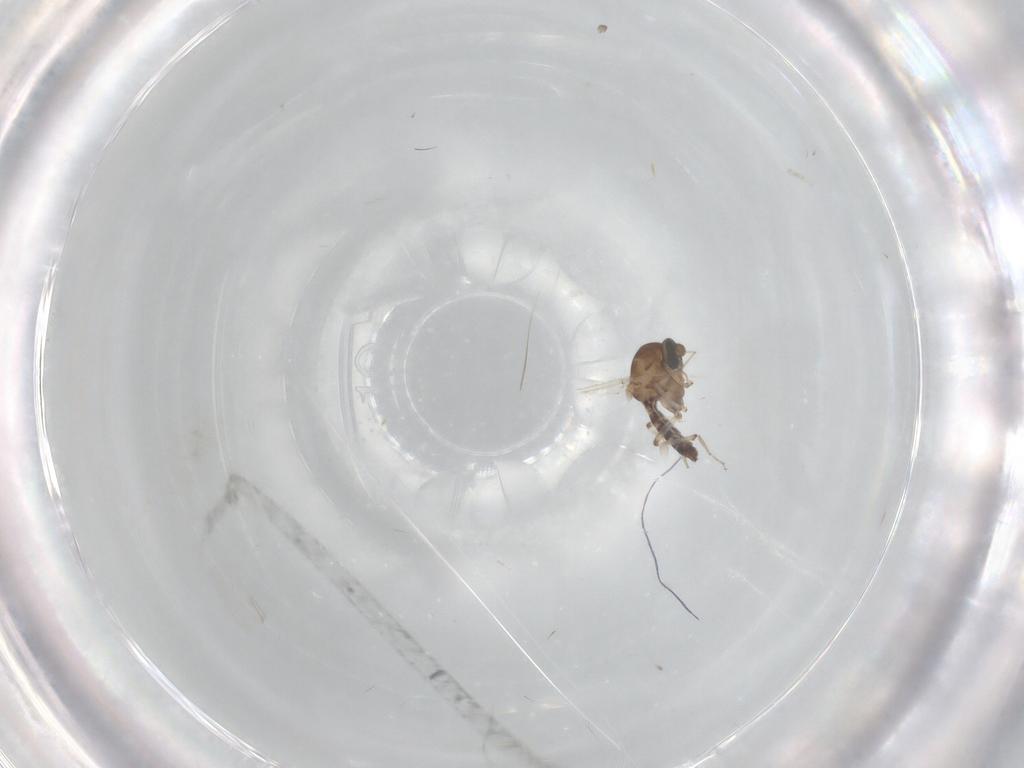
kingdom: Animalia
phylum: Arthropoda
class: Insecta
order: Diptera
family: Ceratopogonidae
